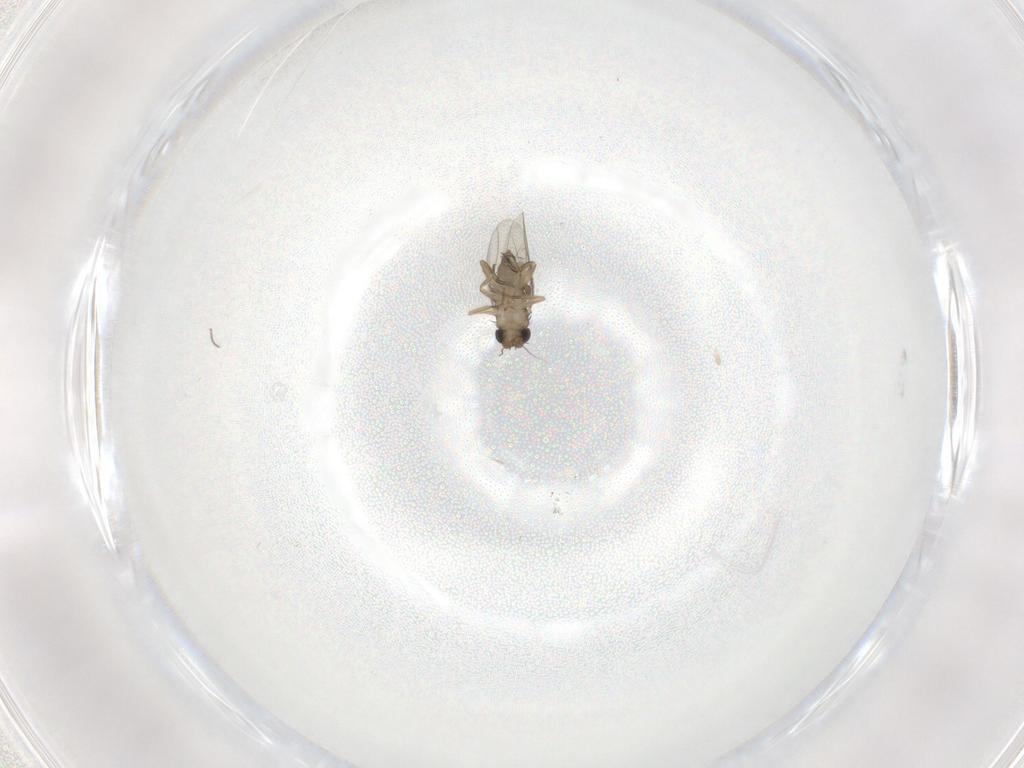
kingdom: Animalia
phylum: Arthropoda
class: Insecta
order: Diptera
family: Phoridae
